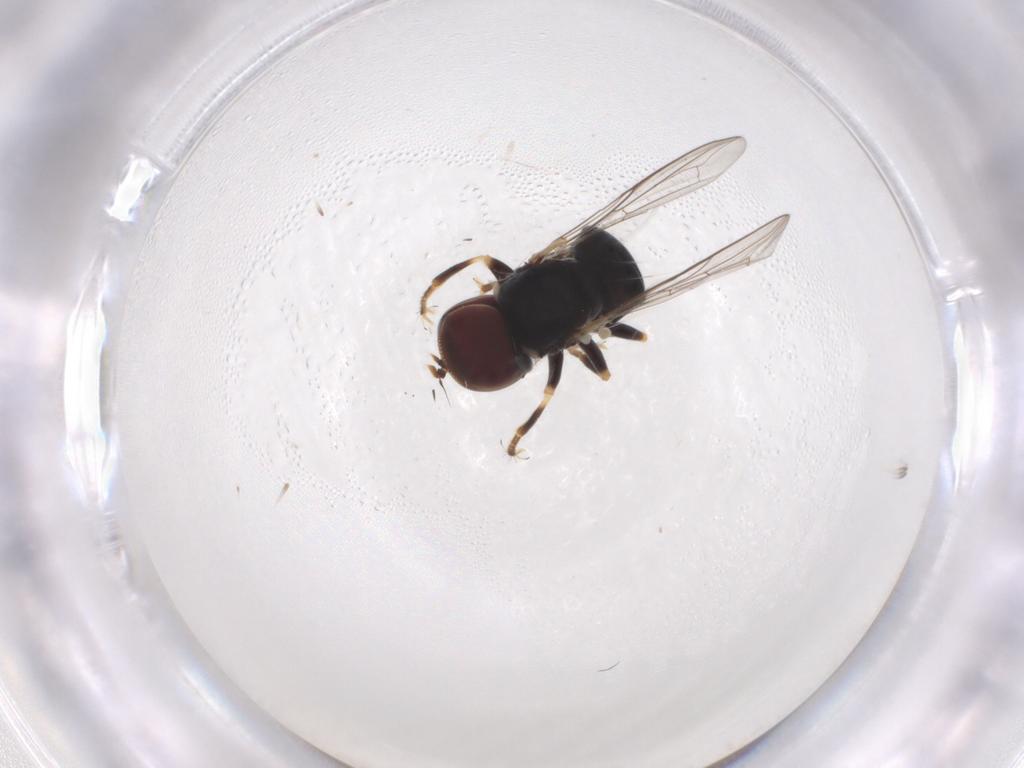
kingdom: Animalia
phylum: Arthropoda
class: Insecta
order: Diptera
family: Pipunculidae
